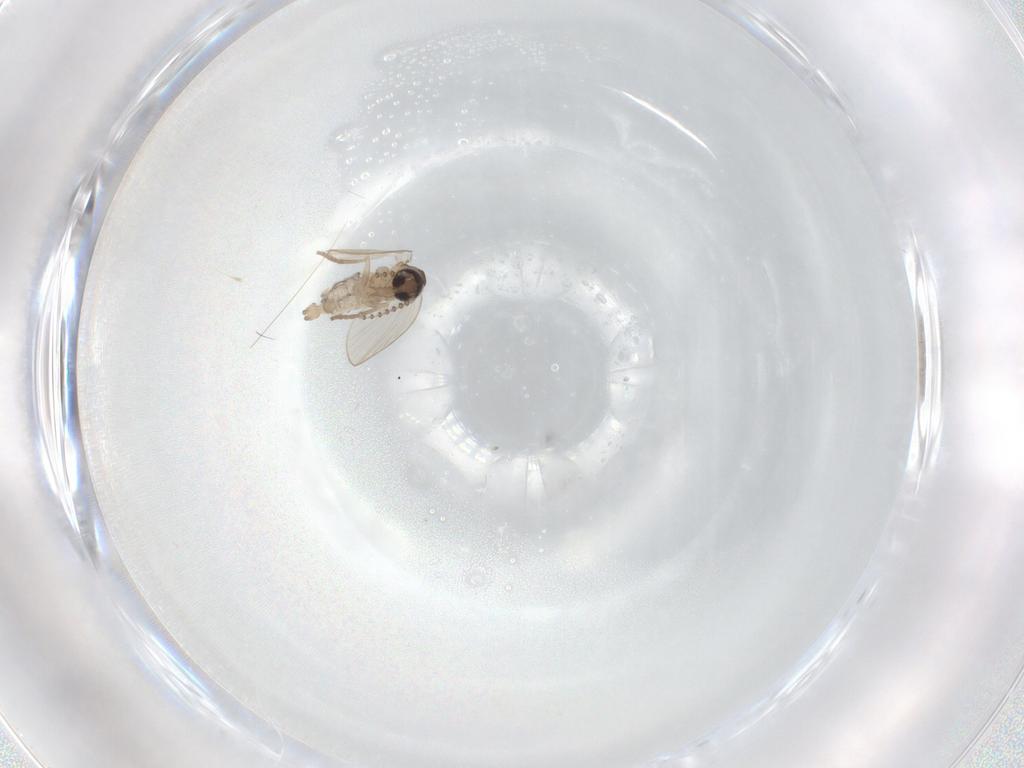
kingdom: Animalia
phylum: Arthropoda
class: Insecta
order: Diptera
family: Psychodidae
